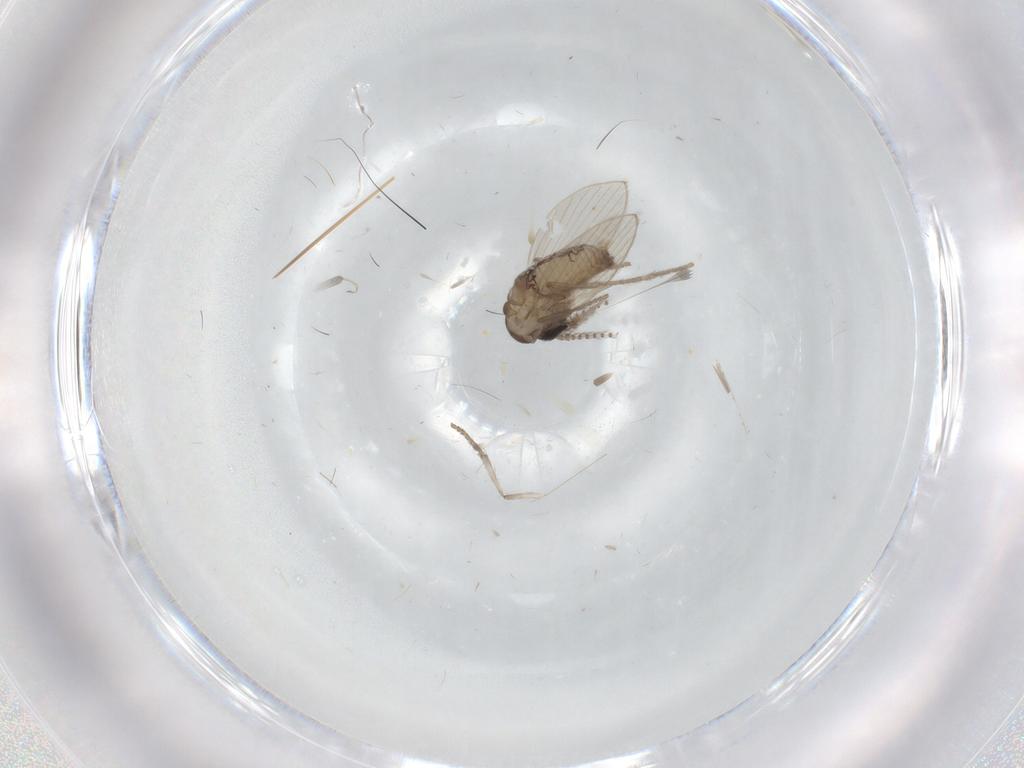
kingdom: Animalia
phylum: Arthropoda
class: Insecta
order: Diptera
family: Psychodidae
